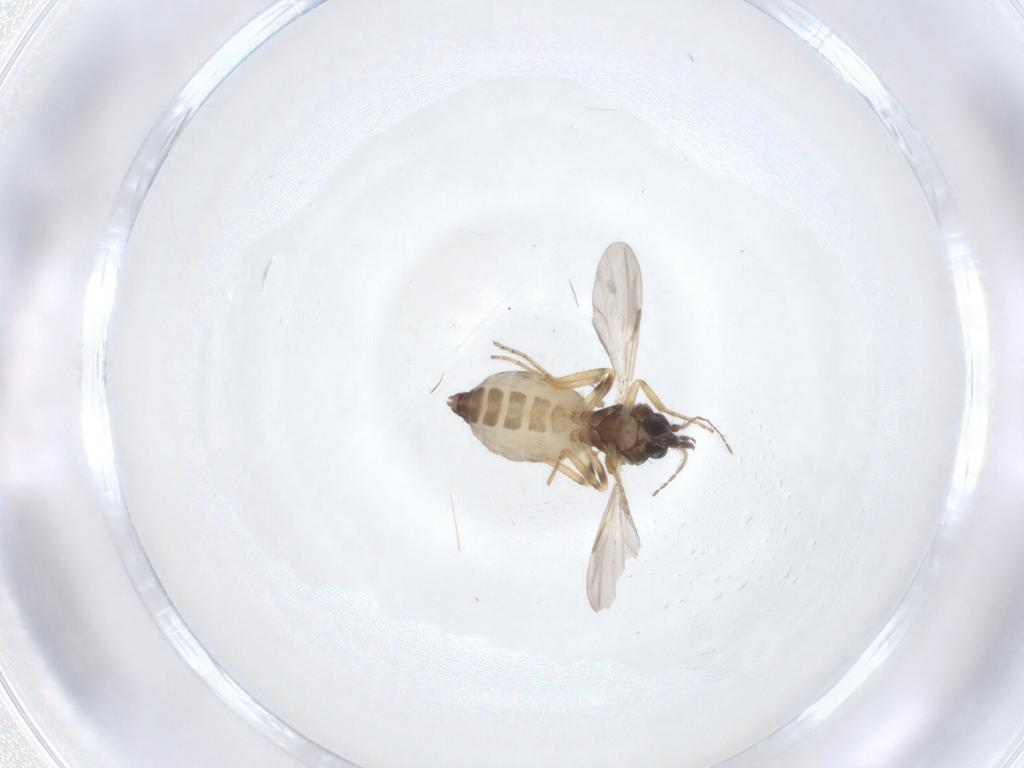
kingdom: Animalia
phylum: Arthropoda
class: Insecta
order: Diptera
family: Ceratopogonidae
